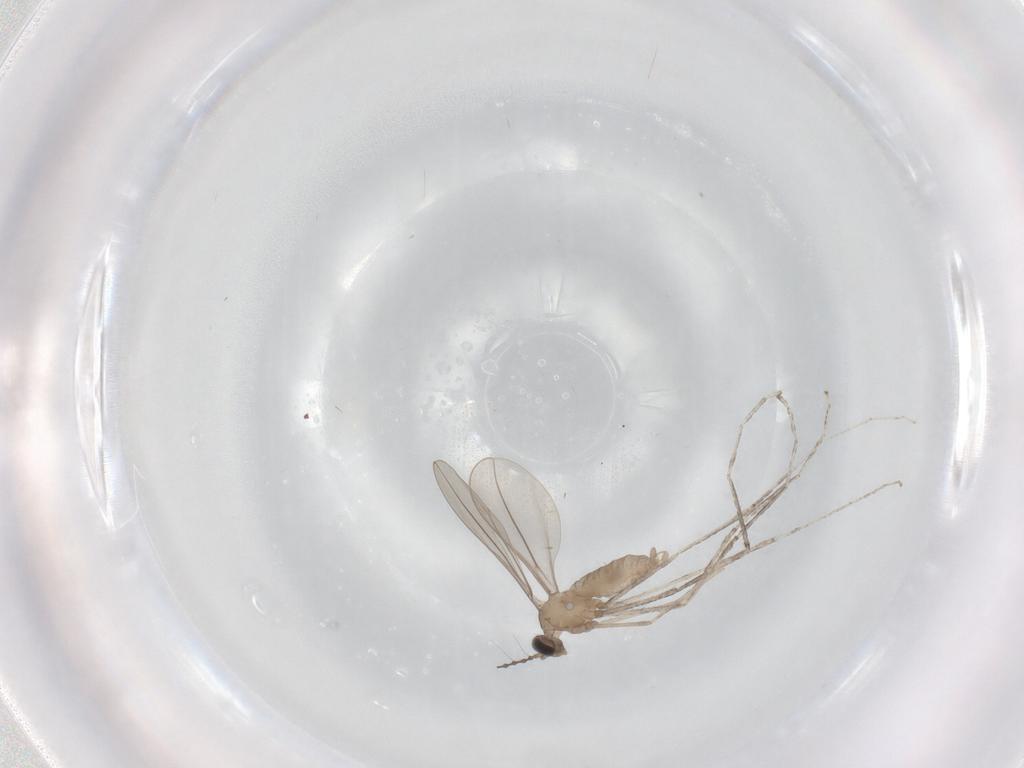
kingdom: Animalia
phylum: Arthropoda
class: Insecta
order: Diptera
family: Cecidomyiidae
